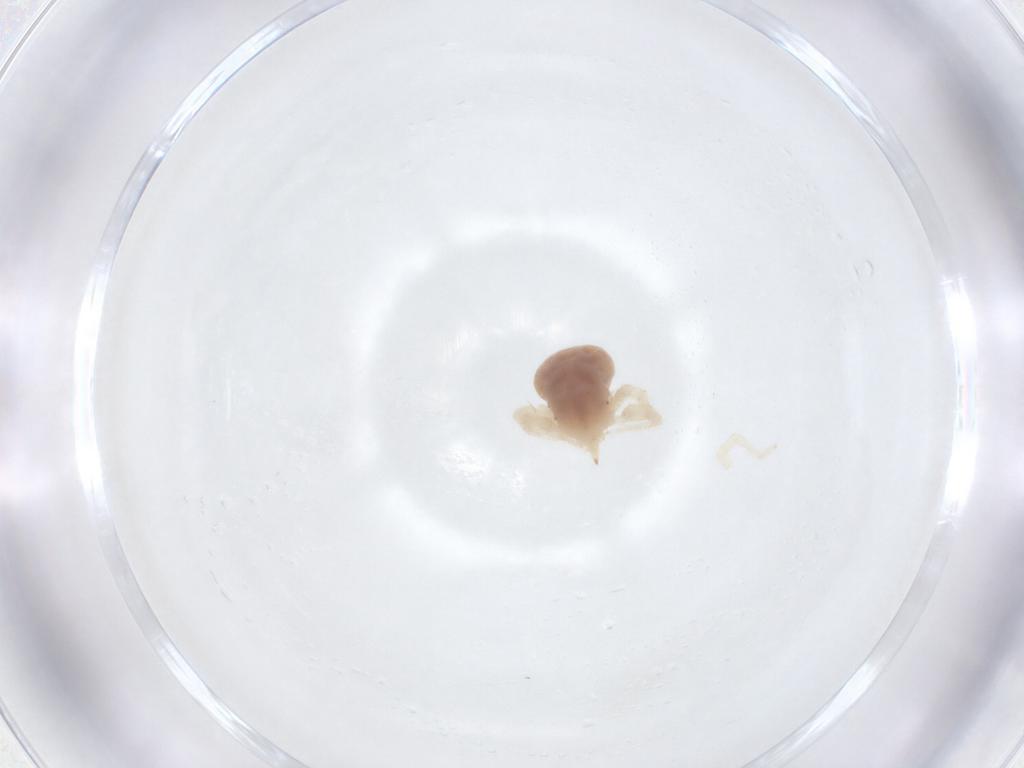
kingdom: Animalia
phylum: Arthropoda
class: Arachnida
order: Trombidiformes
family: Anystidae
